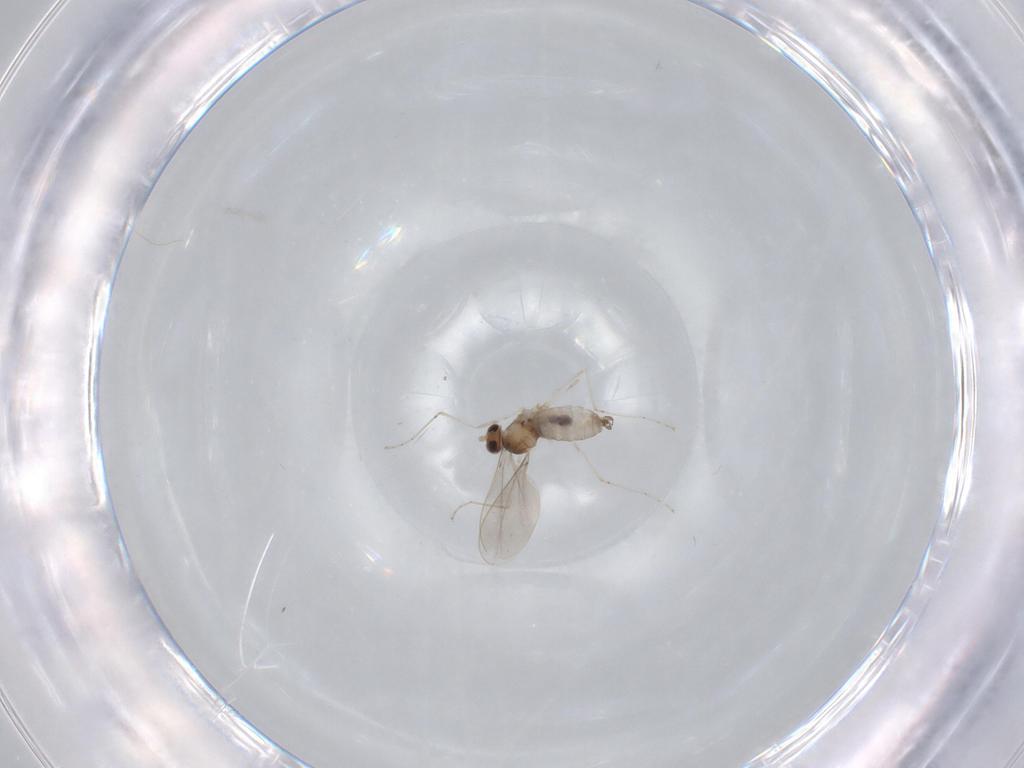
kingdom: Animalia
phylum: Arthropoda
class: Insecta
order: Diptera
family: Cecidomyiidae
